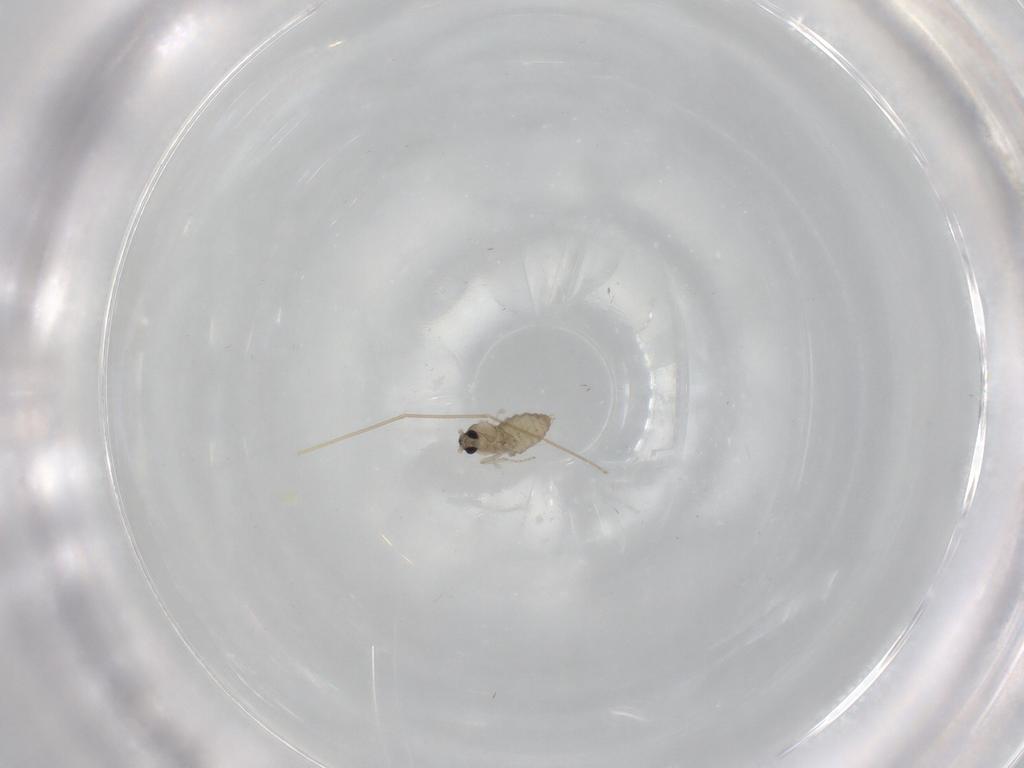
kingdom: Animalia
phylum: Arthropoda
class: Insecta
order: Diptera
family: Cecidomyiidae
